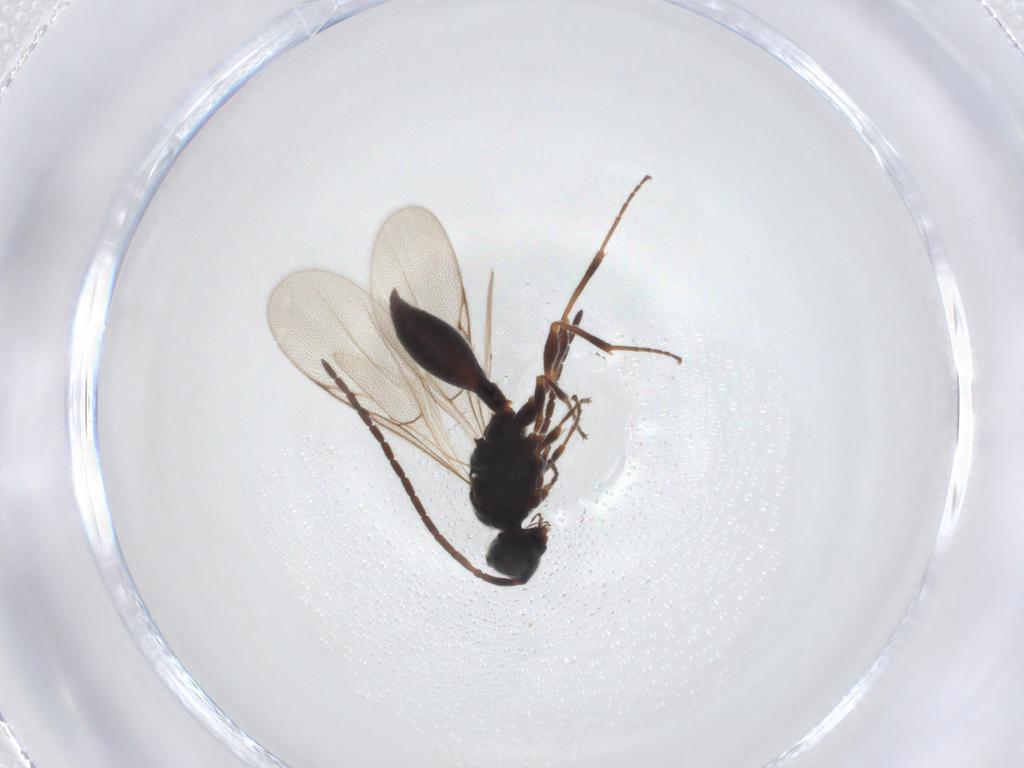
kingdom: Animalia
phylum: Arthropoda
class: Insecta
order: Hymenoptera
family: Diapriidae
